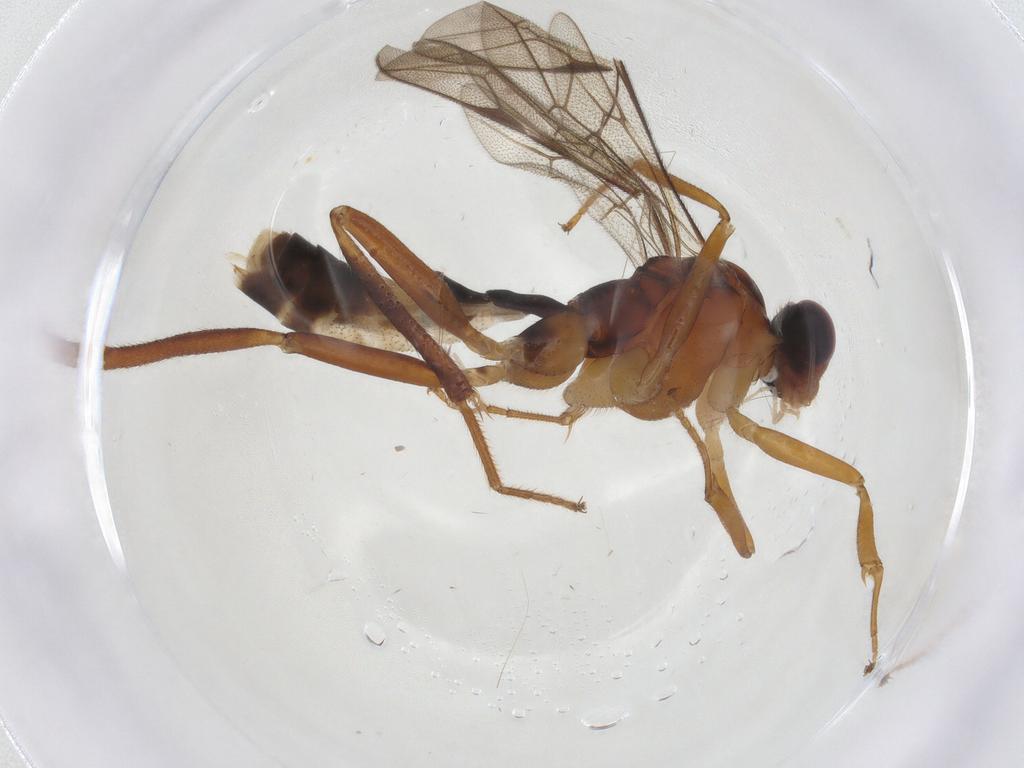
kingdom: Animalia
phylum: Arthropoda
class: Insecta
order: Hymenoptera
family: Ichneumonidae
